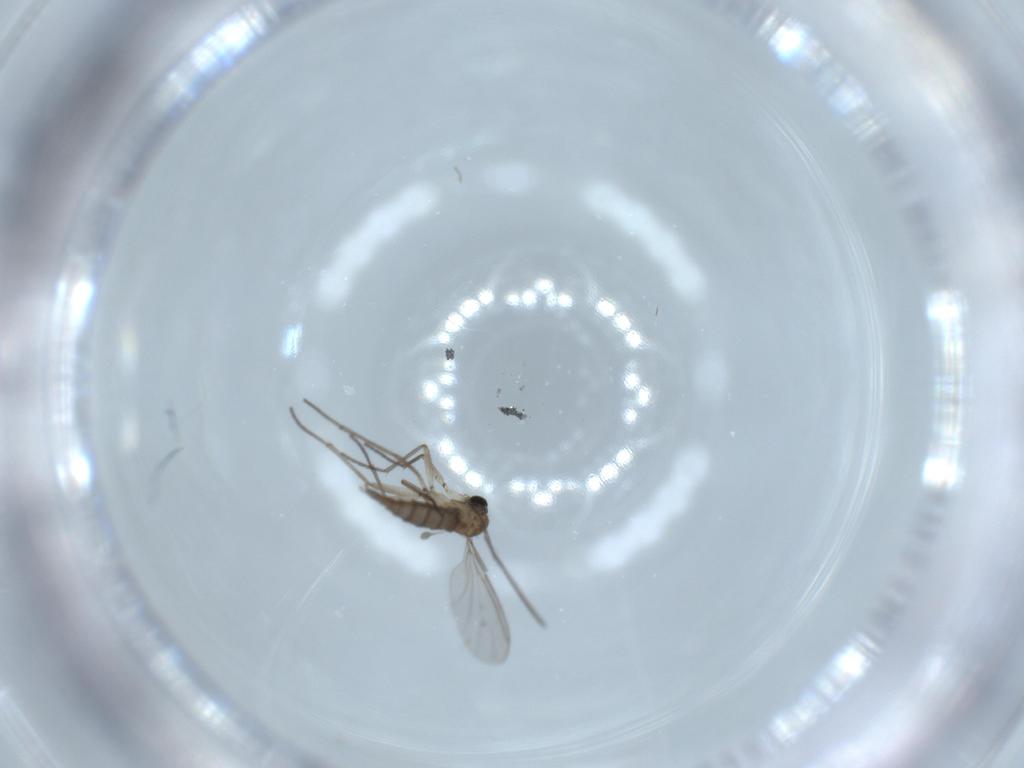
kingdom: Animalia
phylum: Arthropoda
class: Insecta
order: Diptera
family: Sciaridae
